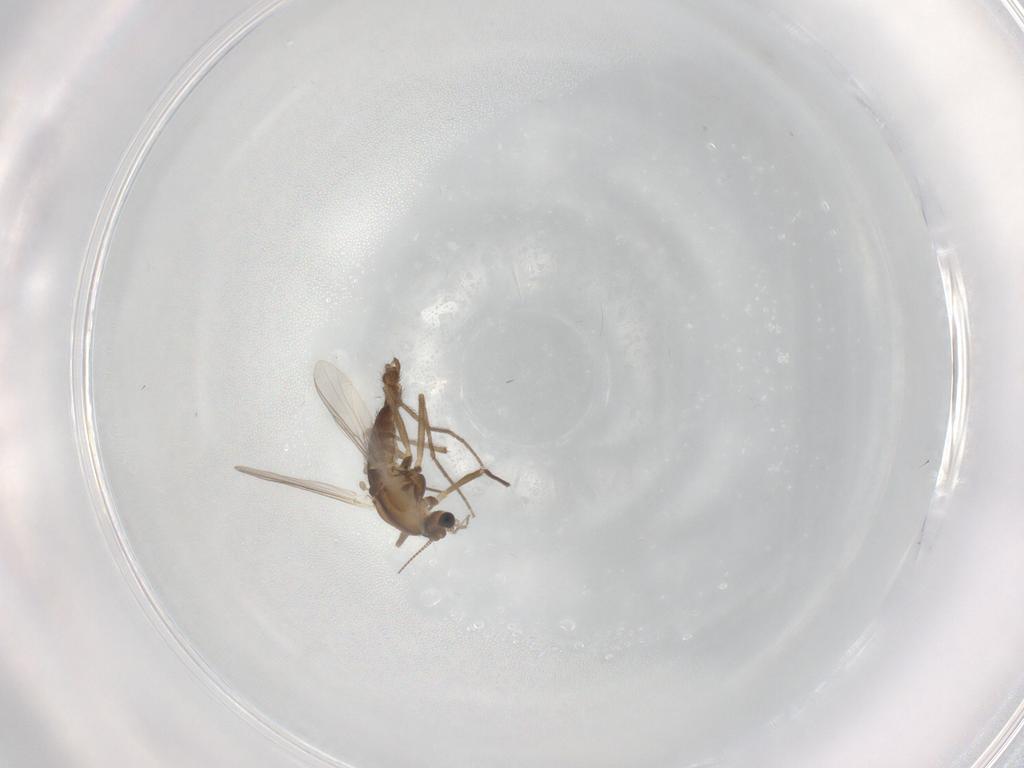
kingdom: Animalia
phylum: Arthropoda
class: Insecta
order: Diptera
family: Chironomidae
